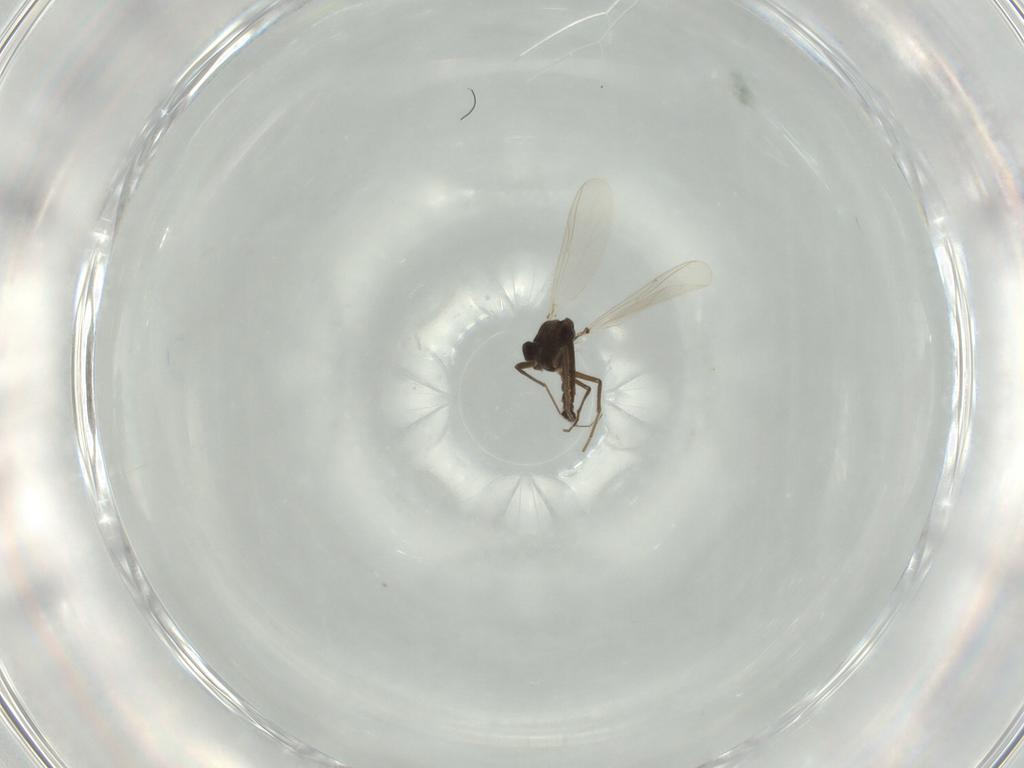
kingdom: Animalia
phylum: Arthropoda
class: Insecta
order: Diptera
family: Chironomidae
